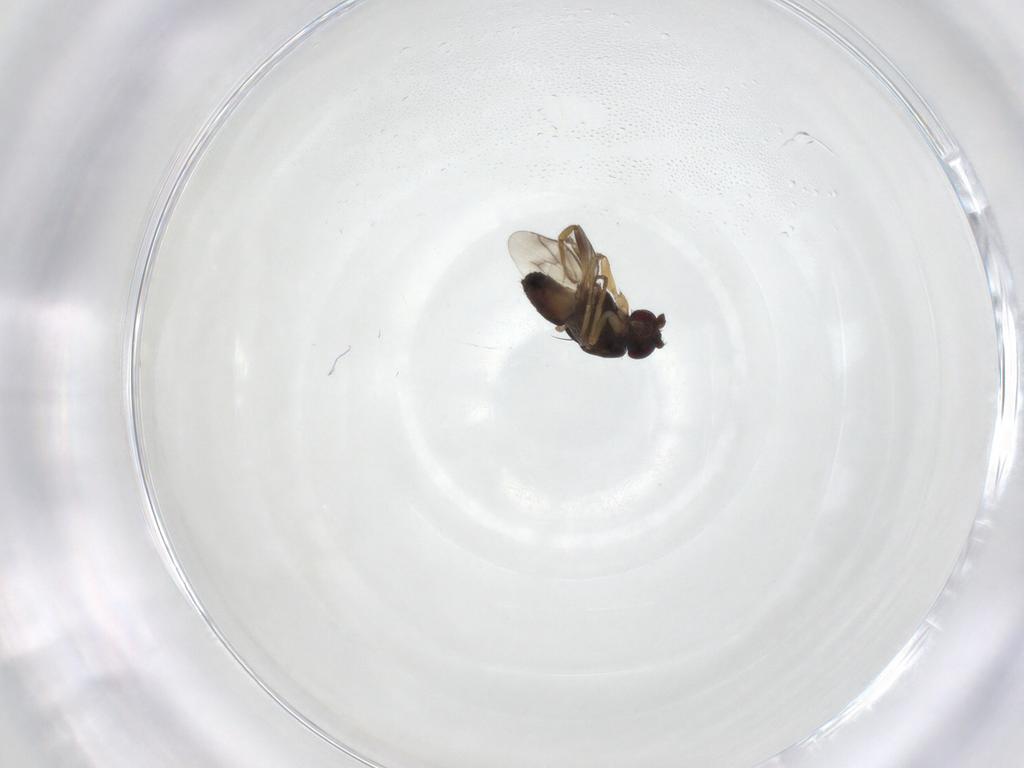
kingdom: Animalia
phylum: Arthropoda
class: Insecta
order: Diptera
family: Sphaeroceridae
